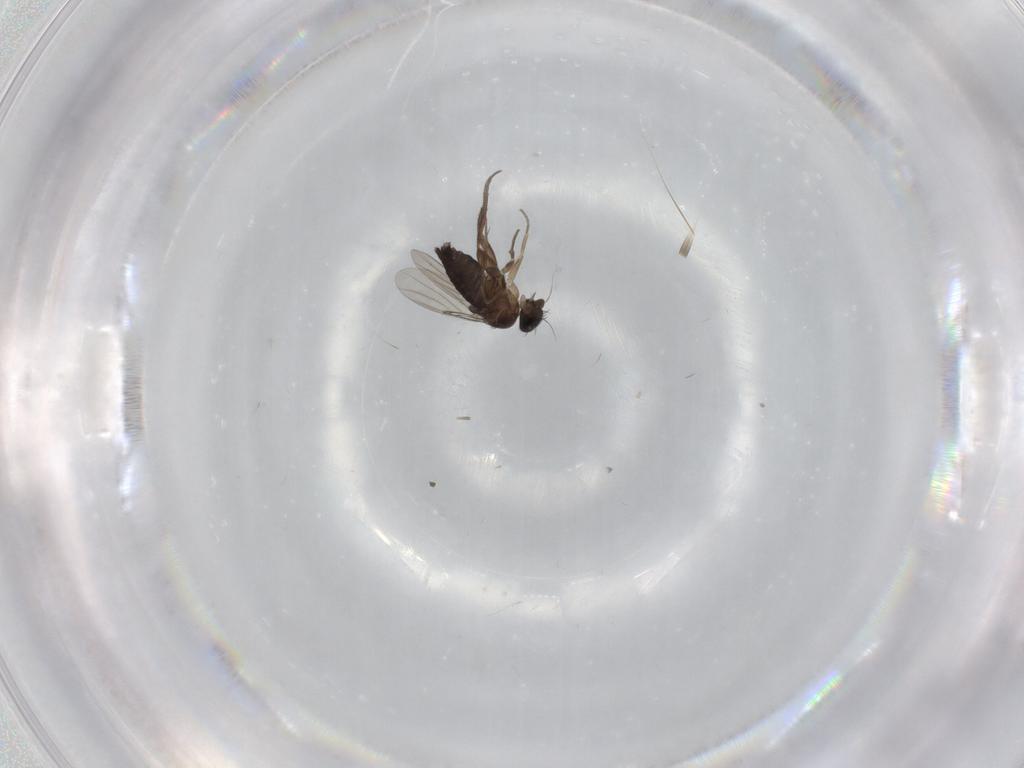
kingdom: Animalia
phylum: Arthropoda
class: Insecta
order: Diptera
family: Phoridae
